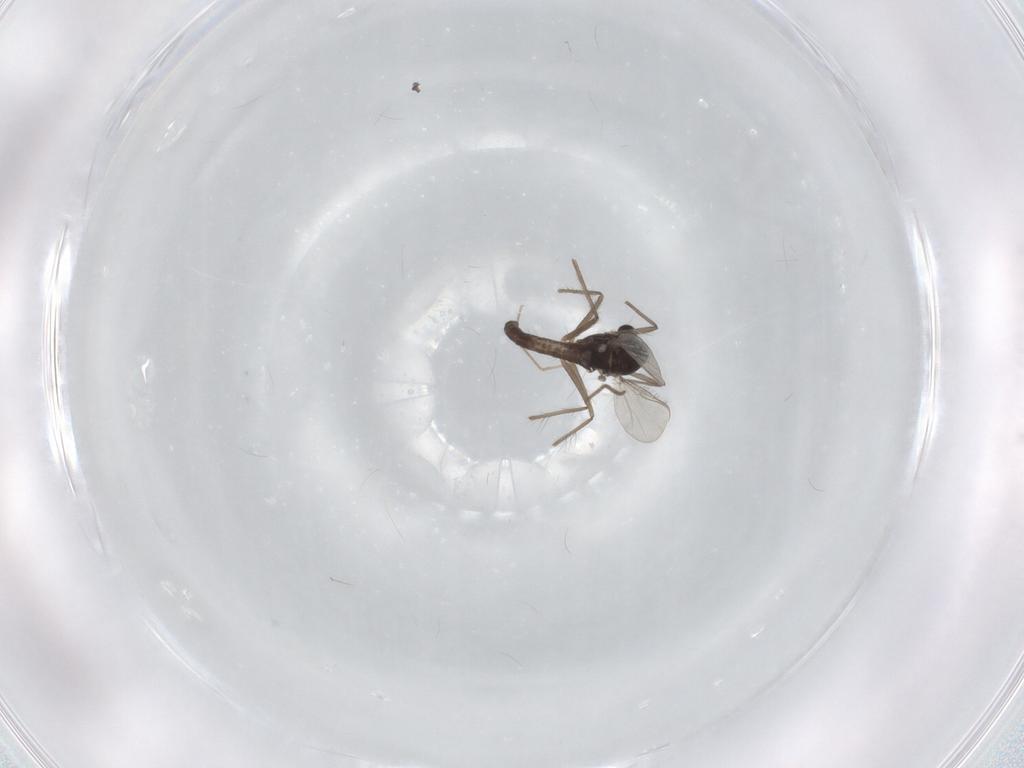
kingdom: Animalia
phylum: Arthropoda
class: Insecta
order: Diptera
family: Chironomidae
